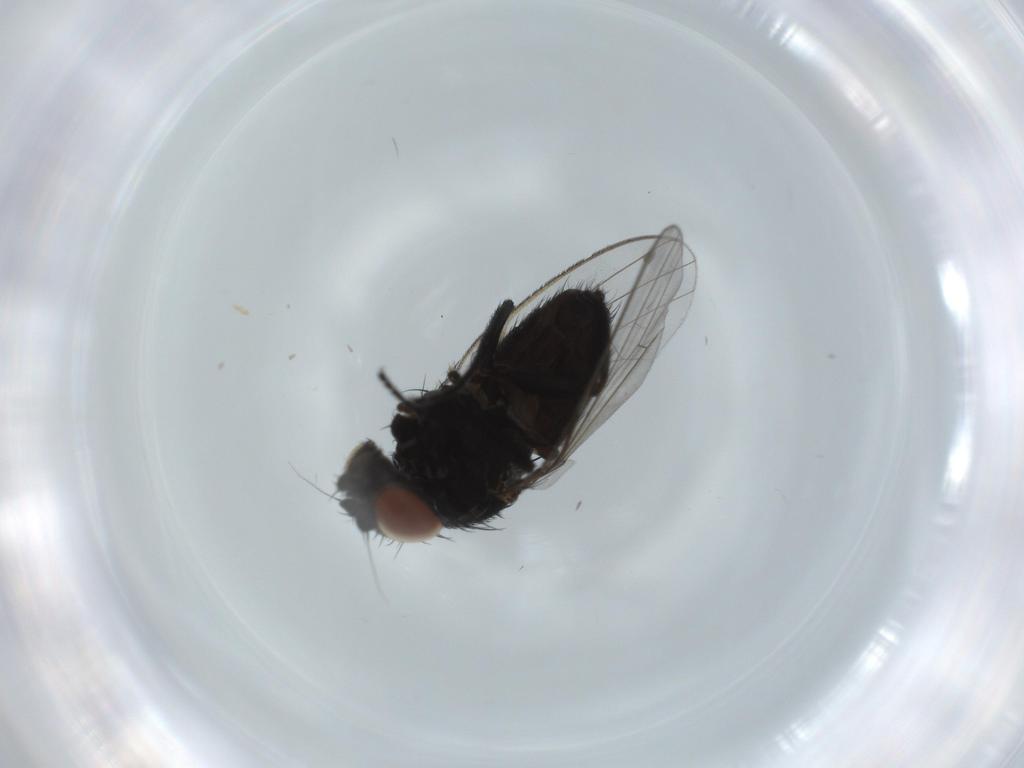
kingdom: Animalia
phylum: Arthropoda
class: Insecta
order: Diptera
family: Milichiidae
